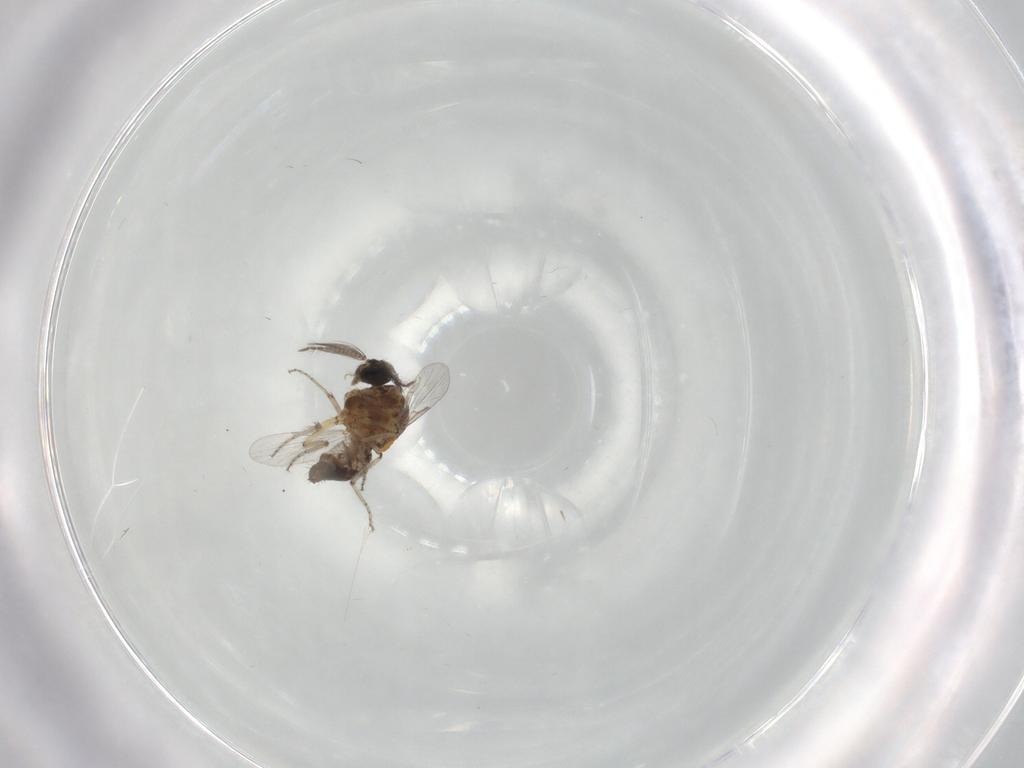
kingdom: Animalia
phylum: Arthropoda
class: Insecta
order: Diptera
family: Ceratopogonidae
